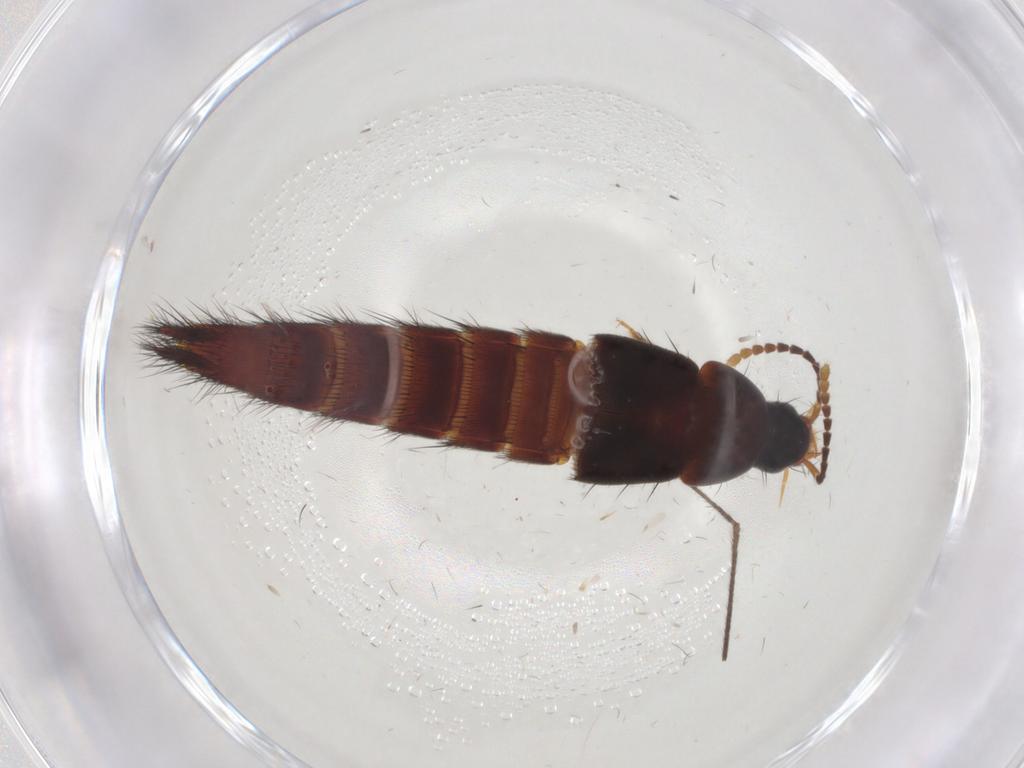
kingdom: Animalia
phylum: Arthropoda
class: Insecta
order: Coleoptera
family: Staphylinidae
